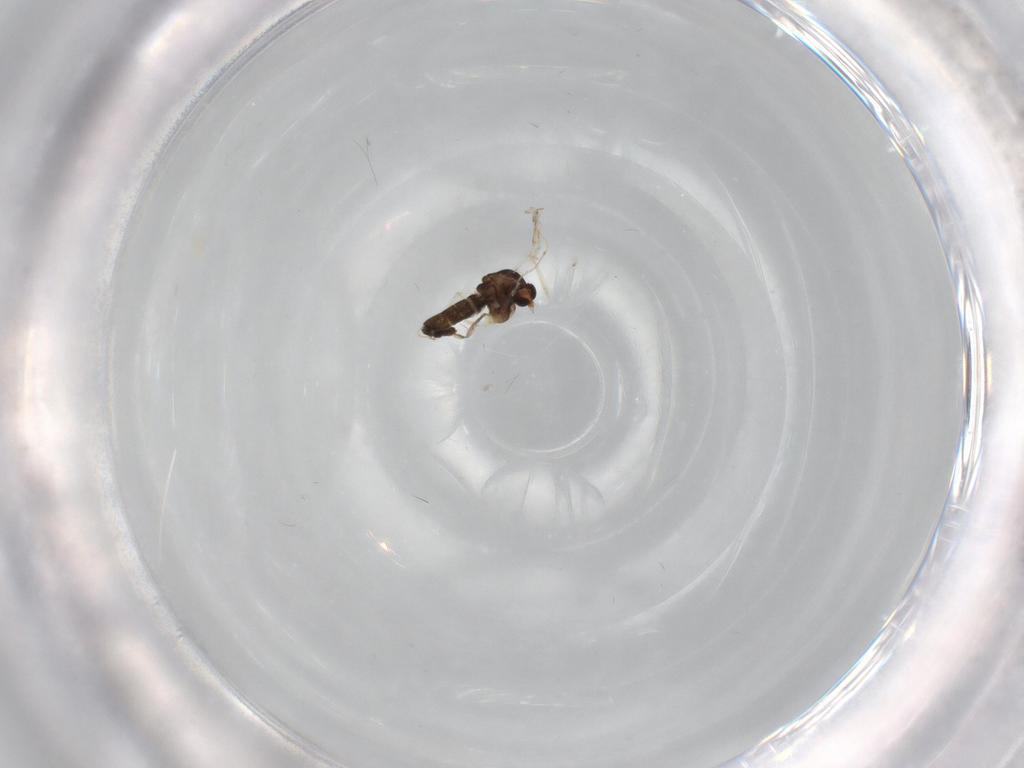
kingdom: Animalia
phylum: Arthropoda
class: Insecta
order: Diptera
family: Chironomidae
